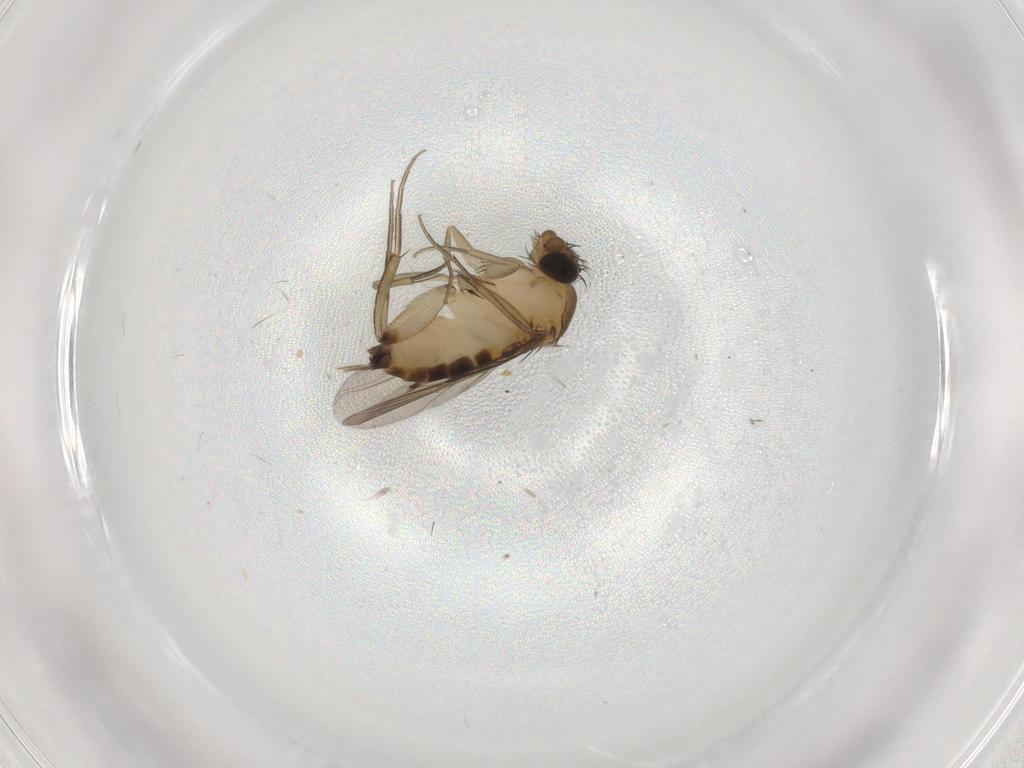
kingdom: Animalia
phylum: Arthropoda
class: Insecta
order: Diptera
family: Phoridae
